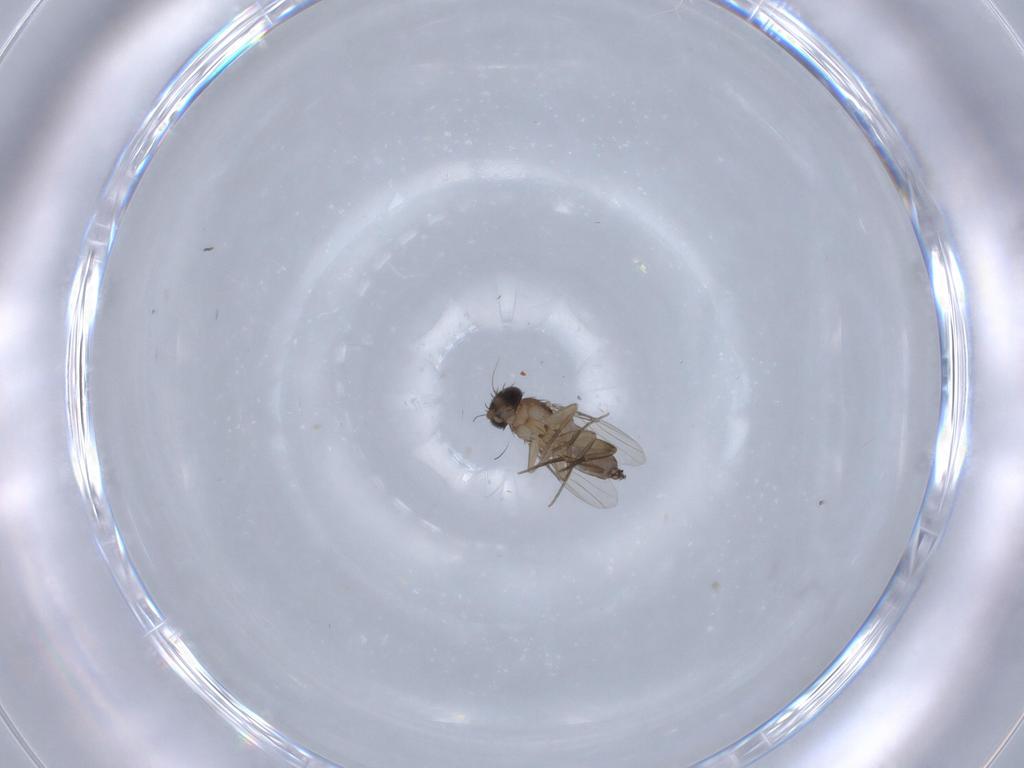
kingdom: Animalia
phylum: Arthropoda
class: Insecta
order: Diptera
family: Phoridae
